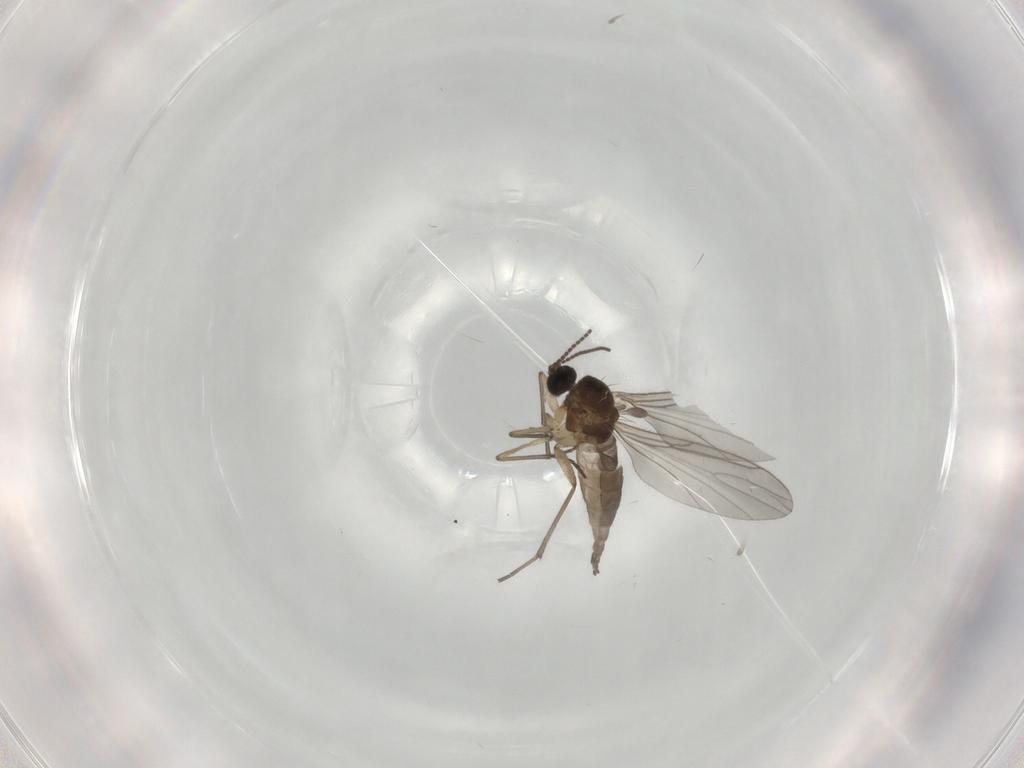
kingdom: Animalia
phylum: Arthropoda
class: Insecta
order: Diptera
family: Sciaridae
